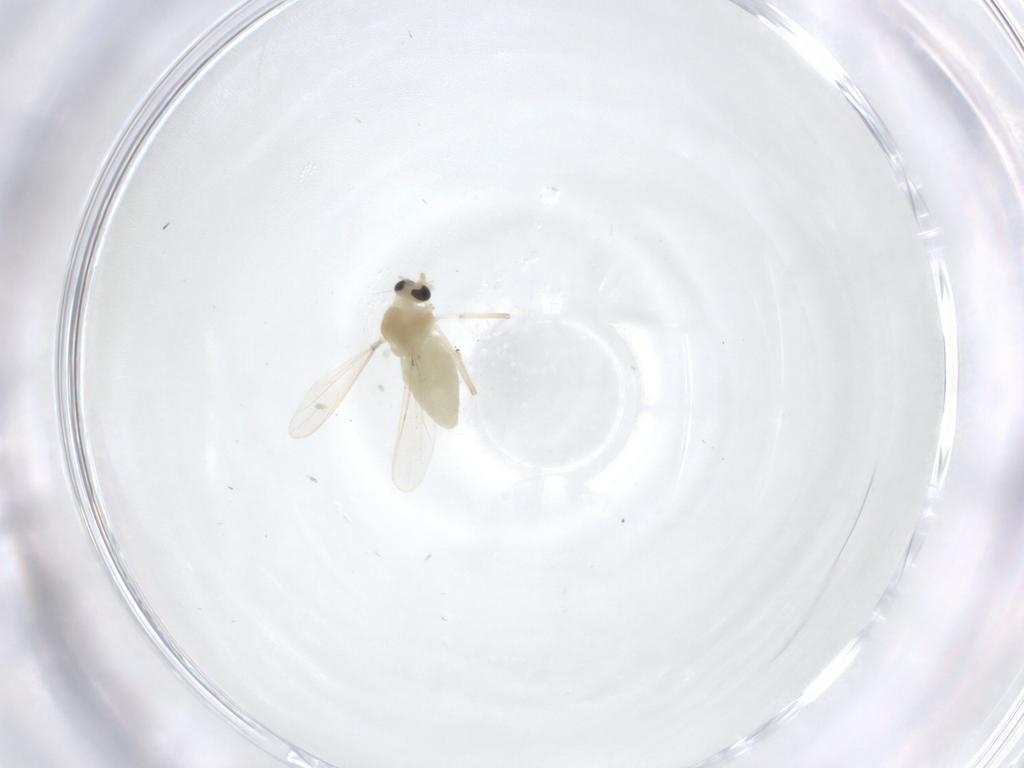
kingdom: Animalia
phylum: Arthropoda
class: Insecta
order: Diptera
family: Chironomidae
